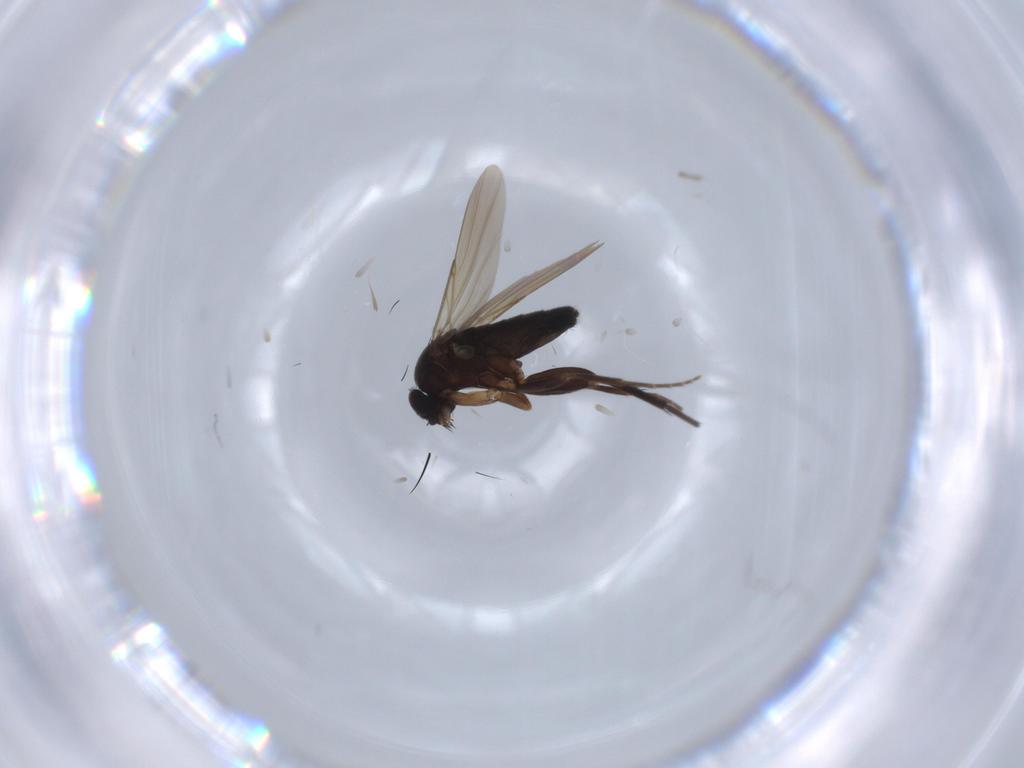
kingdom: Animalia
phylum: Arthropoda
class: Insecta
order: Diptera
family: Phoridae
